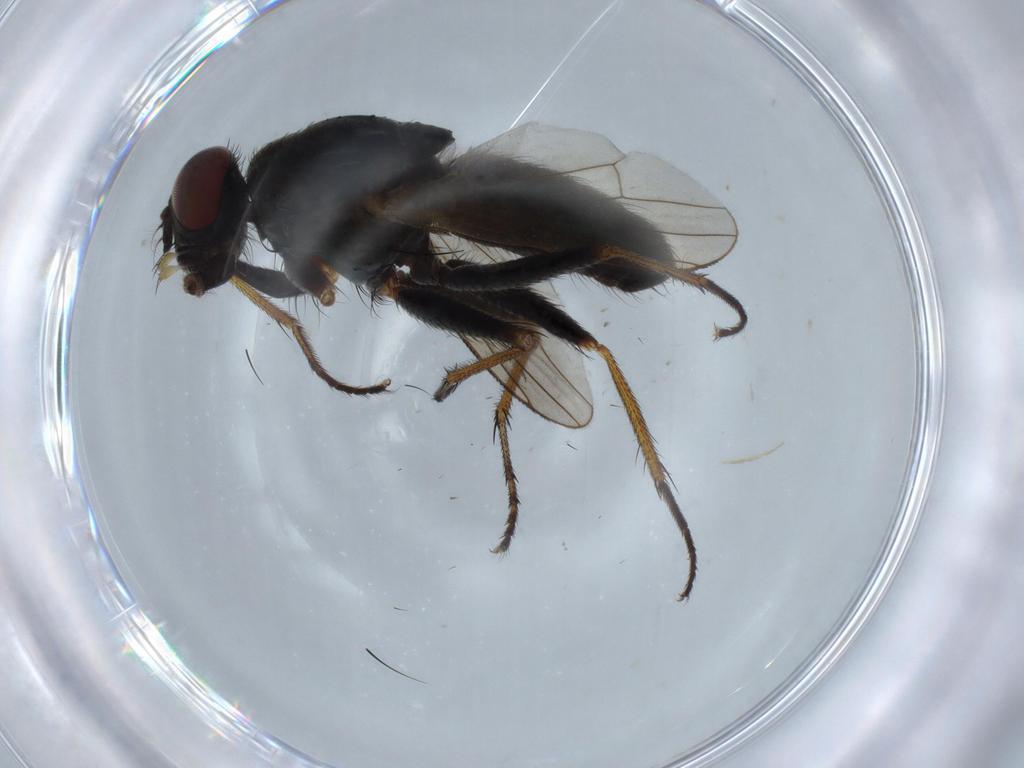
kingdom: Animalia
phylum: Arthropoda
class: Insecta
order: Diptera
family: Muscidae
